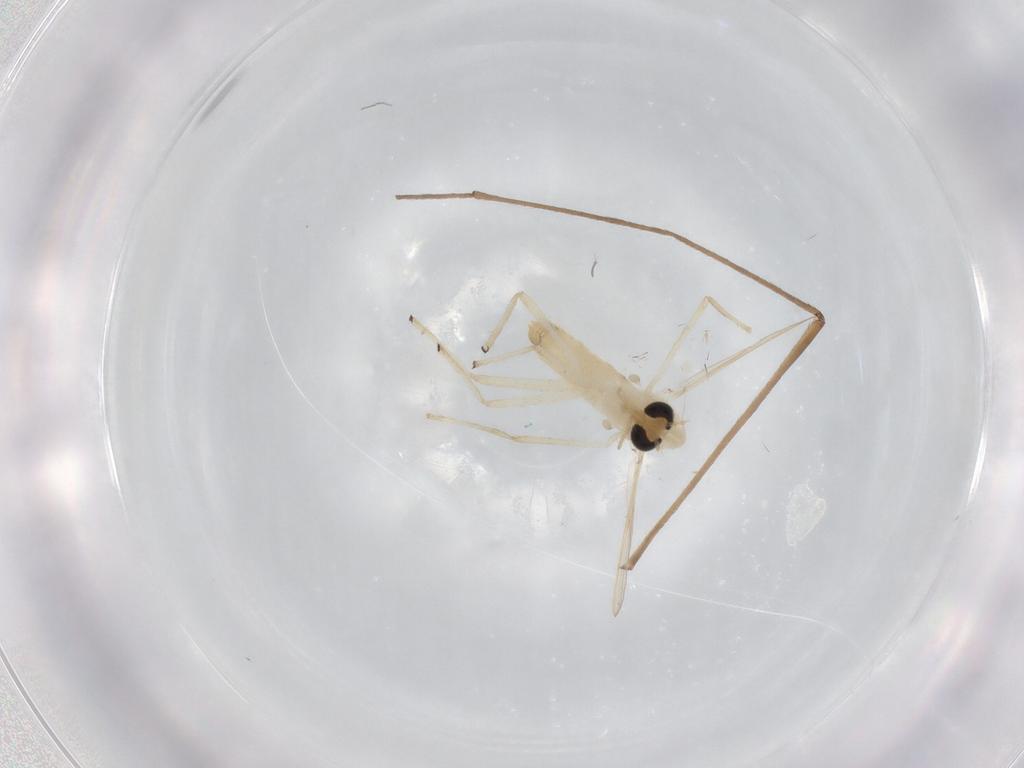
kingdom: Animalia
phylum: Arthropoda
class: Insecta
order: Diptera
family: Chironomidae
